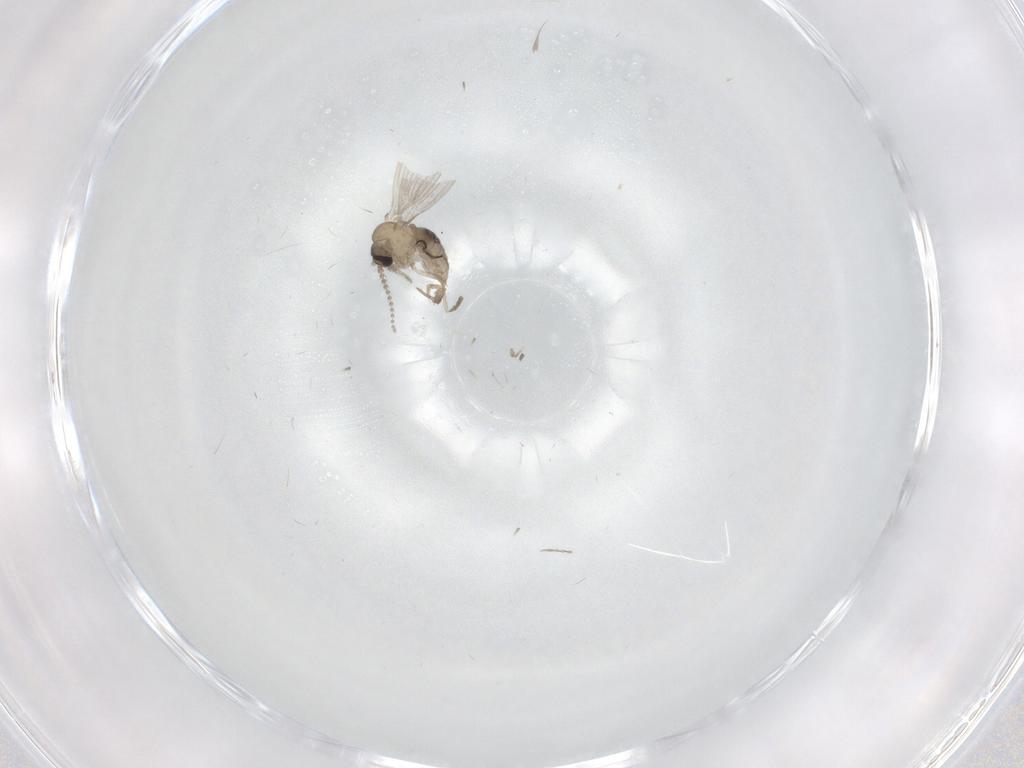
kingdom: Animalia
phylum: Arthropoda
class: Insecta
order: Diptera
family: Psychodidae
